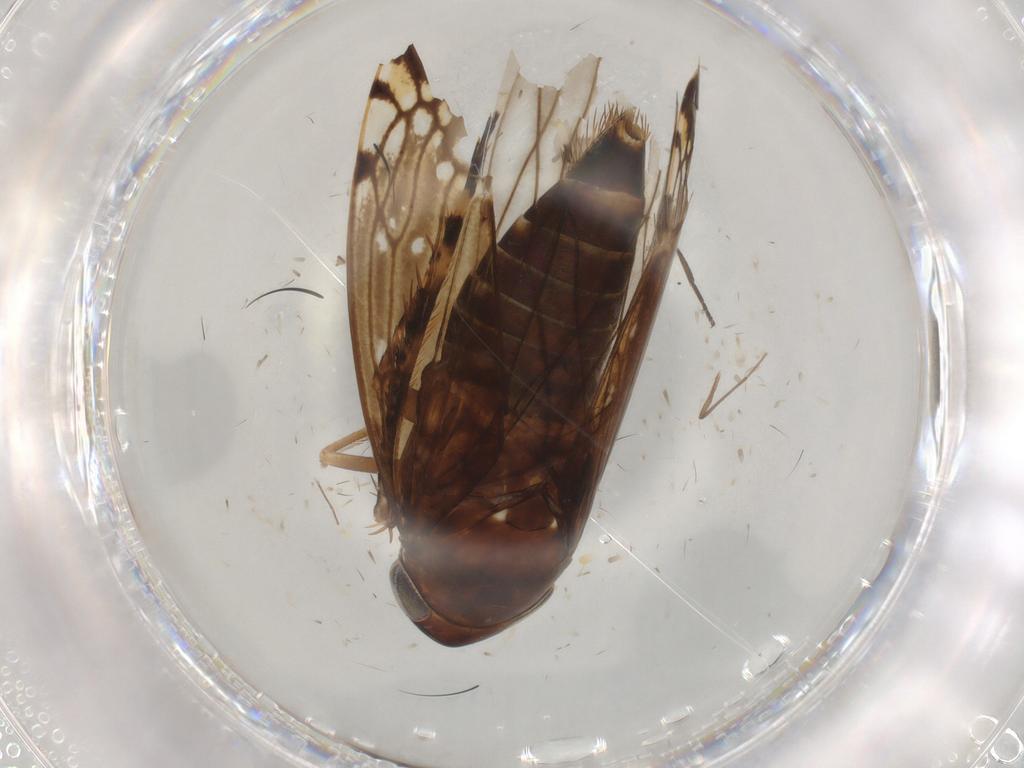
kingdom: Animalia
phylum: Arthropoda
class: Insecta
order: Hemiptera
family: Cicadellidae
